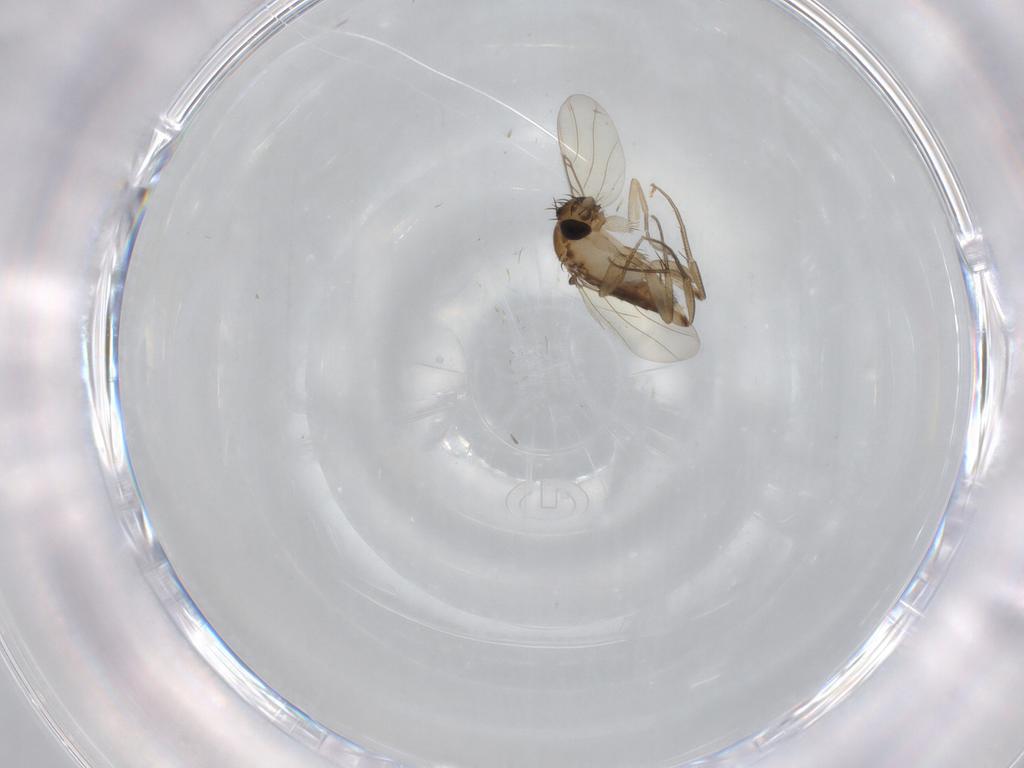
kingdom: Animalia
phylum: Arthropoda
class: Insecta
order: Diptera
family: Phoridae
